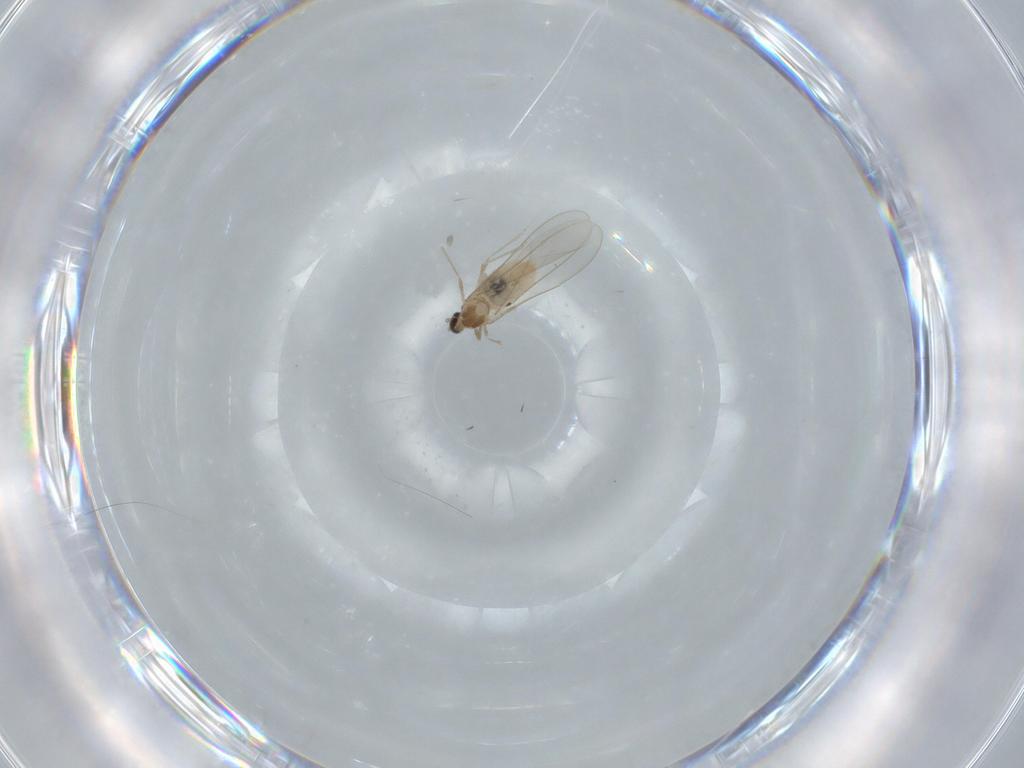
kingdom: Animalia
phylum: Arthropoda
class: Insecta
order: Diptera
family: Cecidomyiidae
